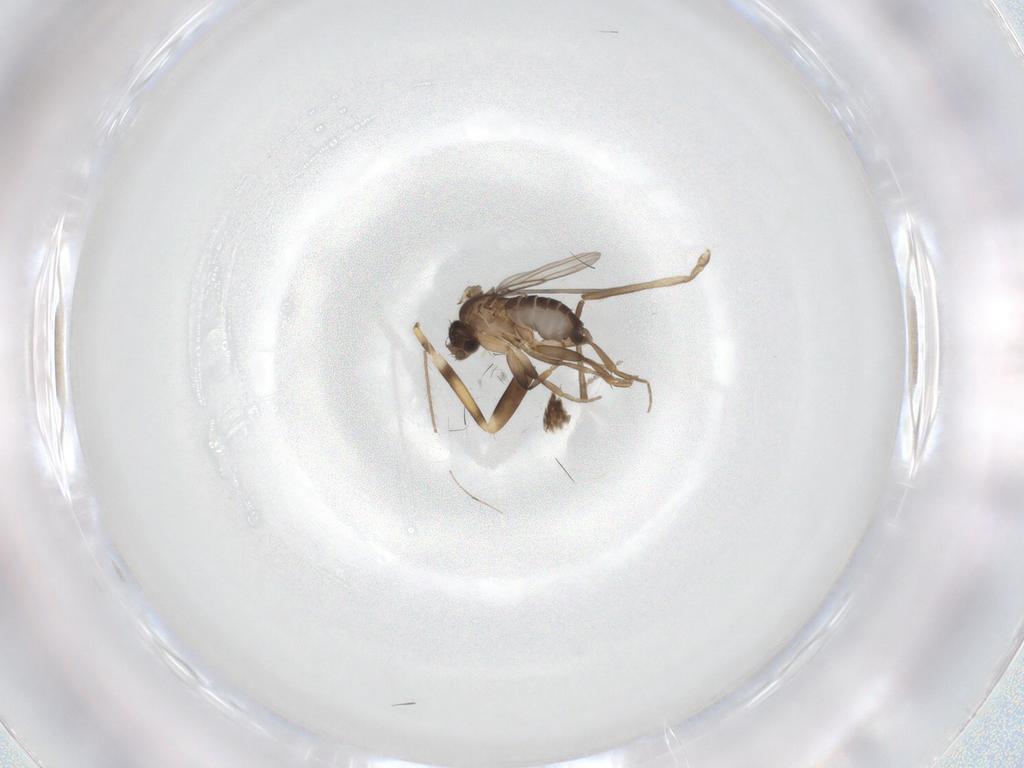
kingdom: Animalia
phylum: Arthropoda
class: Insecta
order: Diptera
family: Cecidomyiidae
